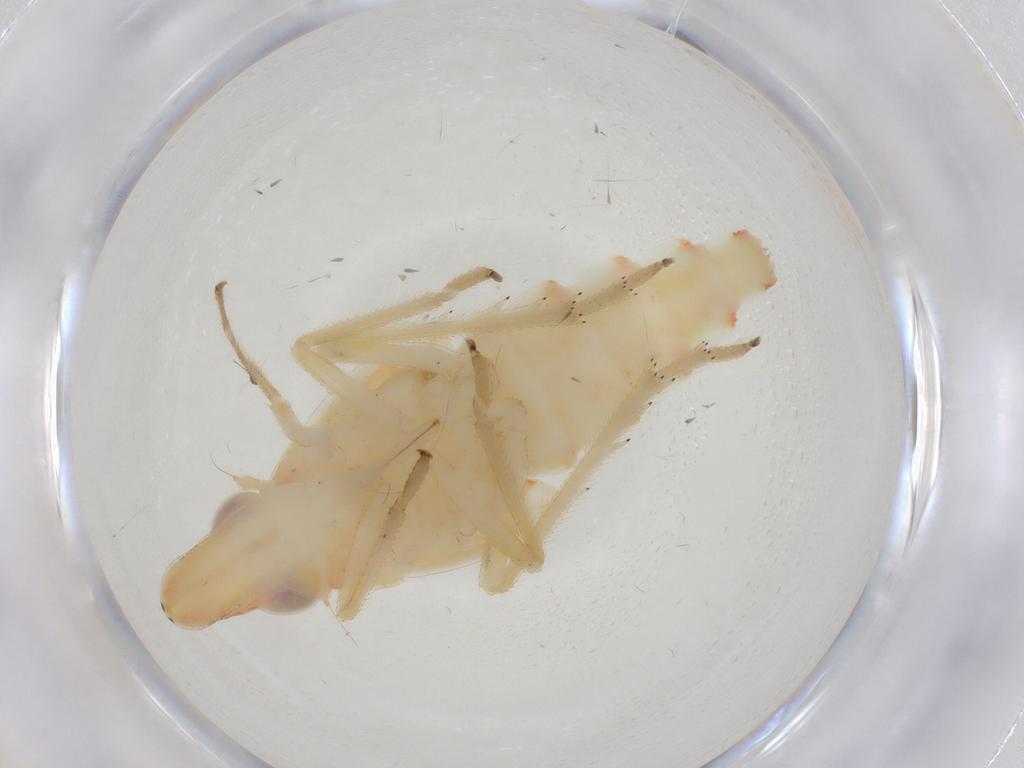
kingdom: Animalia
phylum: Arthropoda
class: Insecta
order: Hemiptera
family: Tropiduchidae
